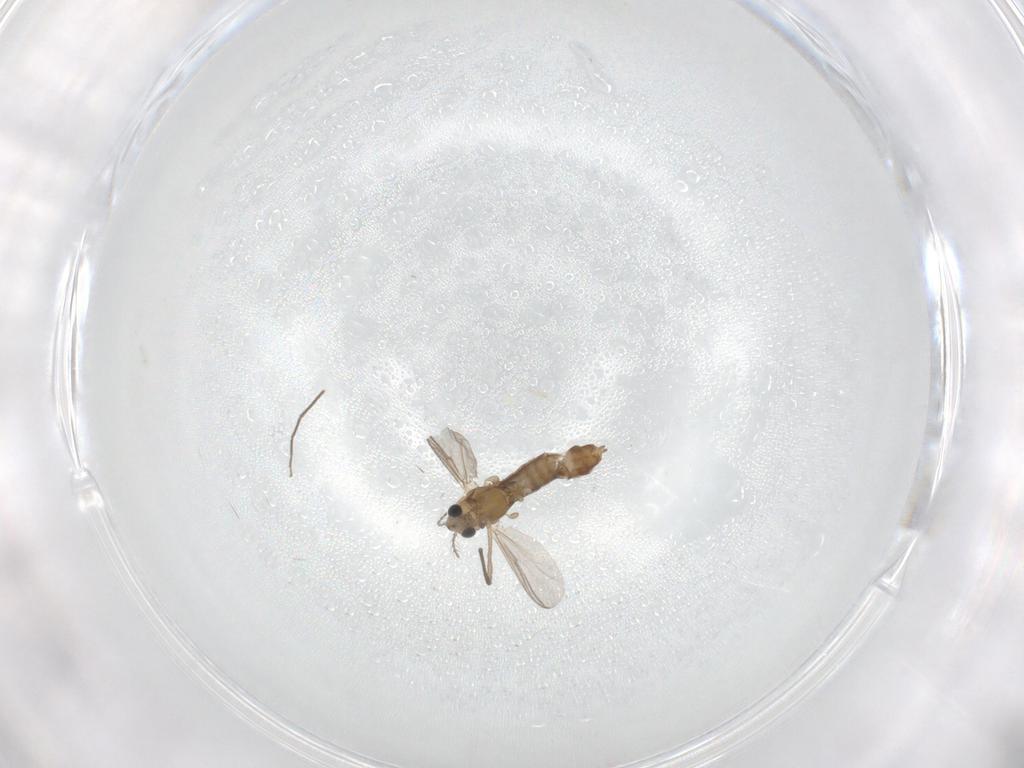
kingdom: Animalia
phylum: Arthropoda
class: Insecta
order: Diptera
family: Chironomidae
